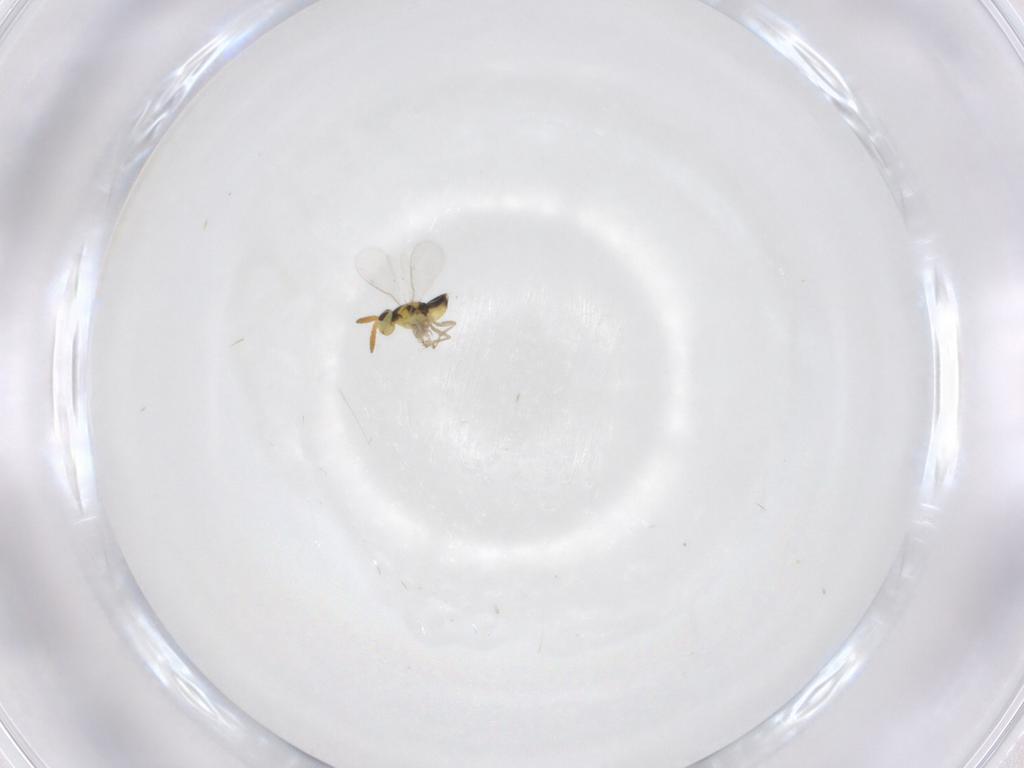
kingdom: Animalia
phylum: Arthropoda
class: Insecta
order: Hymenoptera
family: Aphelinidae
